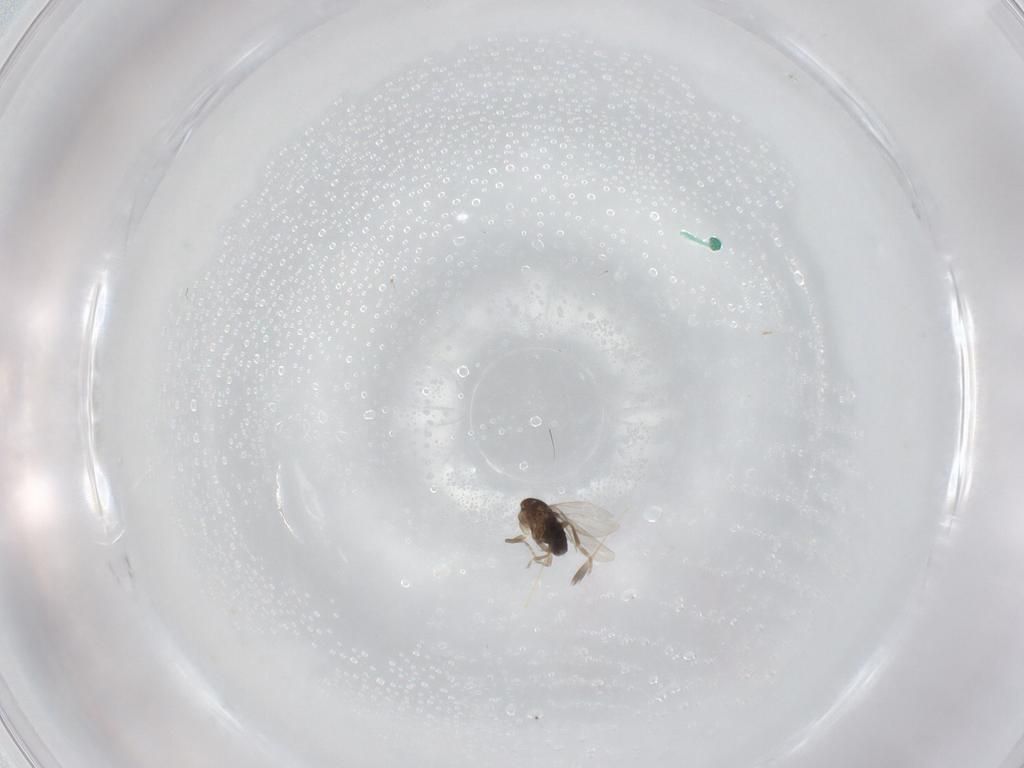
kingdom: Animalia
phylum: Arthropoda
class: Insecta
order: Diptera
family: Phoridae
